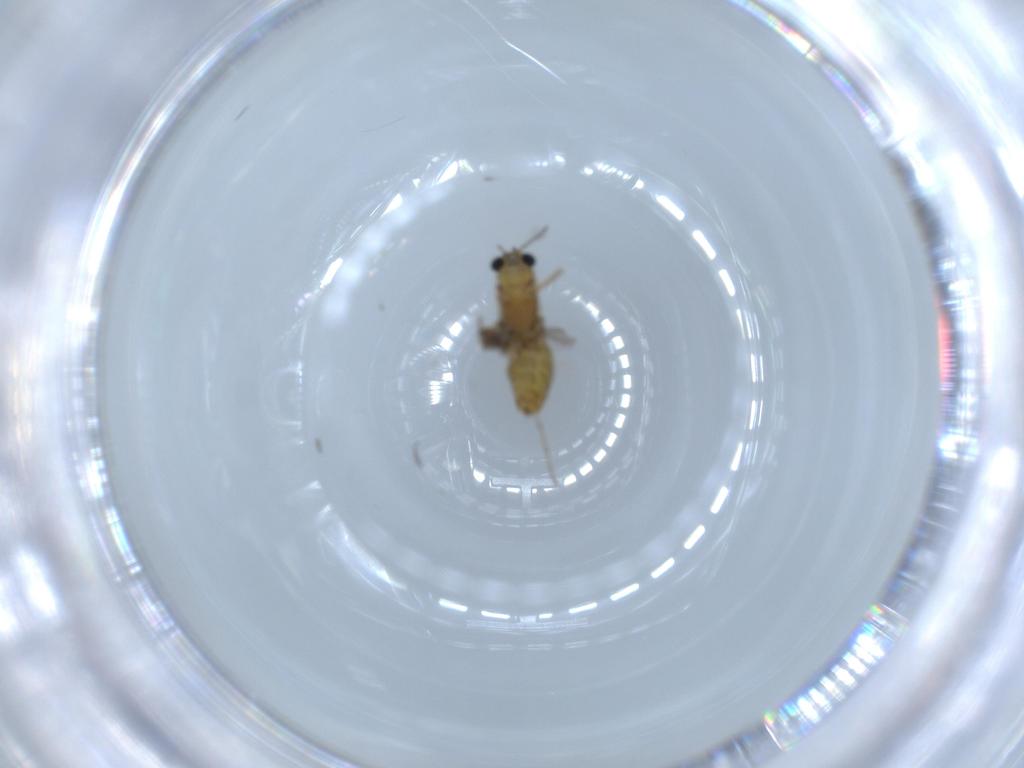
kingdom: Animalia
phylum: Arthropoda
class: Insecta
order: Diptera
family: Chironomidae
